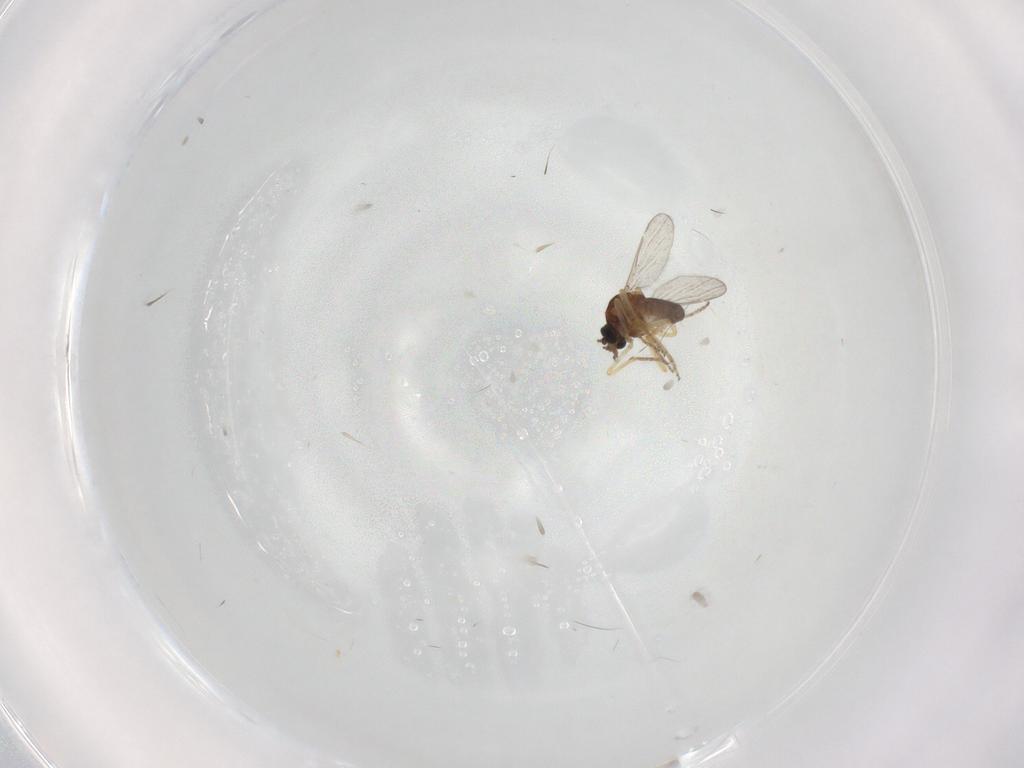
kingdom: Animalia
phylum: Arthropoda
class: Insecta
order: Diptera
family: Ceratopogonidae
